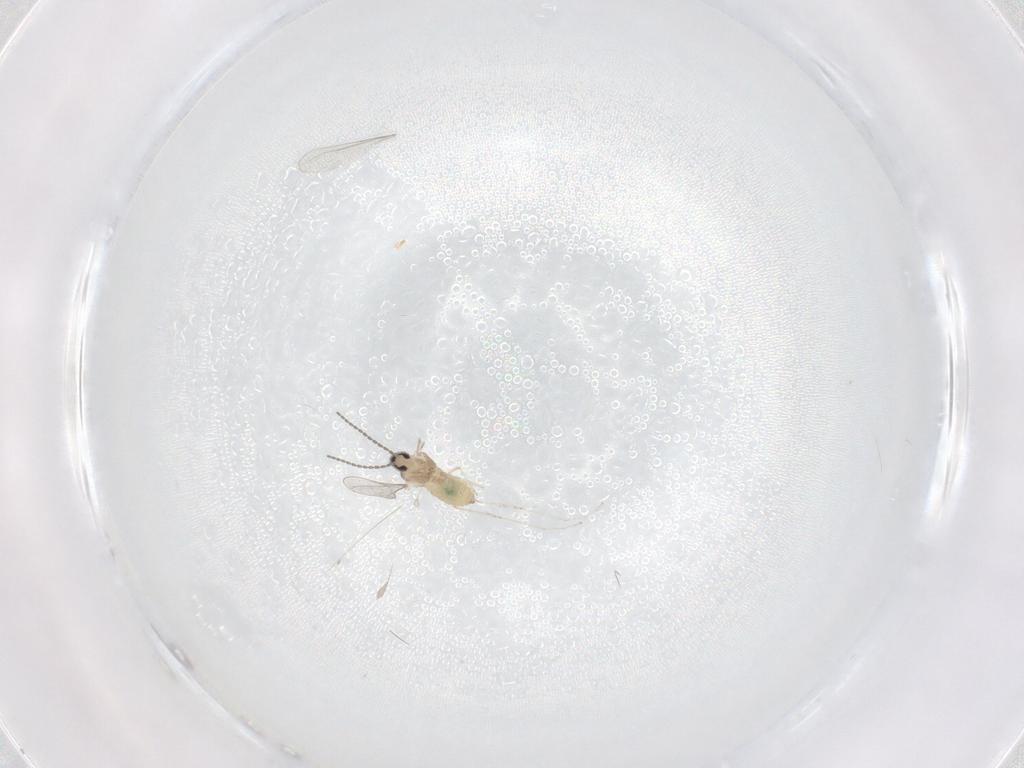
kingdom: Animalia
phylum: Arthropoda
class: Insecta
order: Diptera
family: Cecidomyiidae
